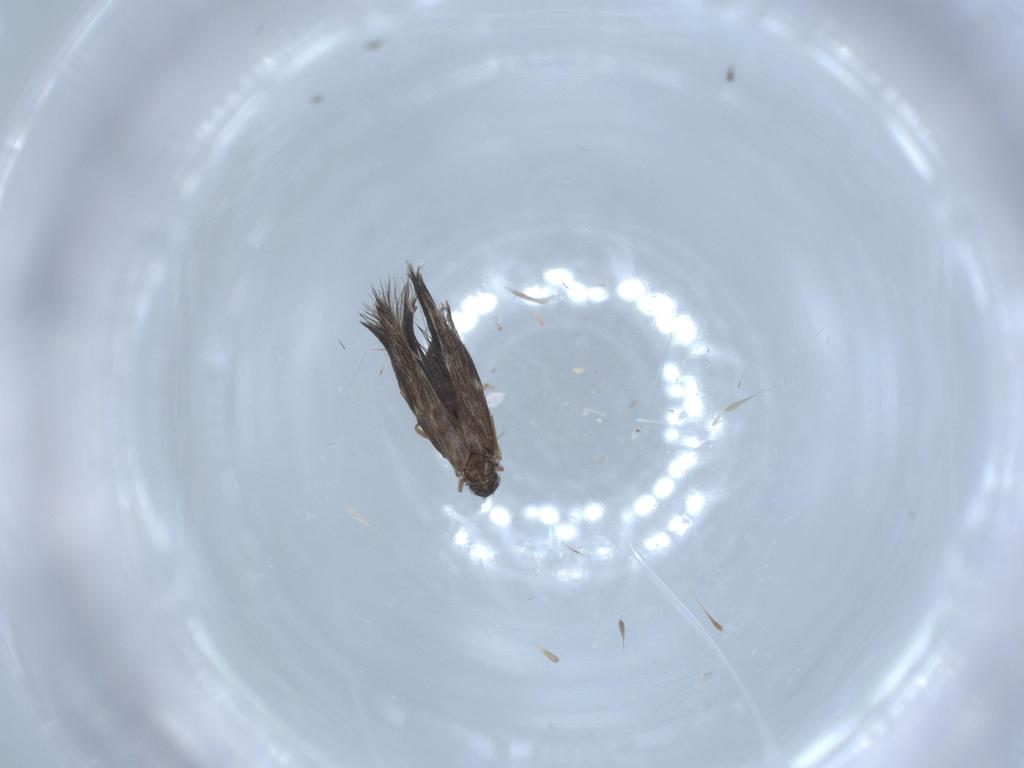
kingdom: Animalia
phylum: Arthropoda
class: Insecta
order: Trichoptera
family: Hydroptilidae
